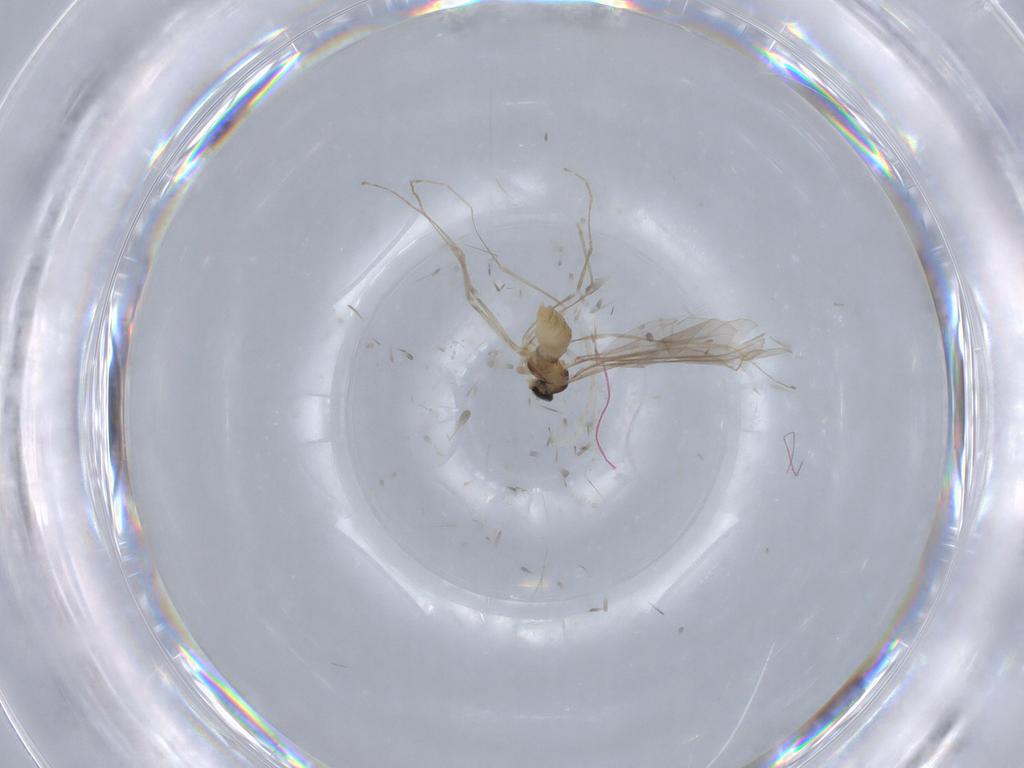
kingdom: Animalia
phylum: Arthropoda
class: Insecta
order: Diptera
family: Cecidomyiidae
